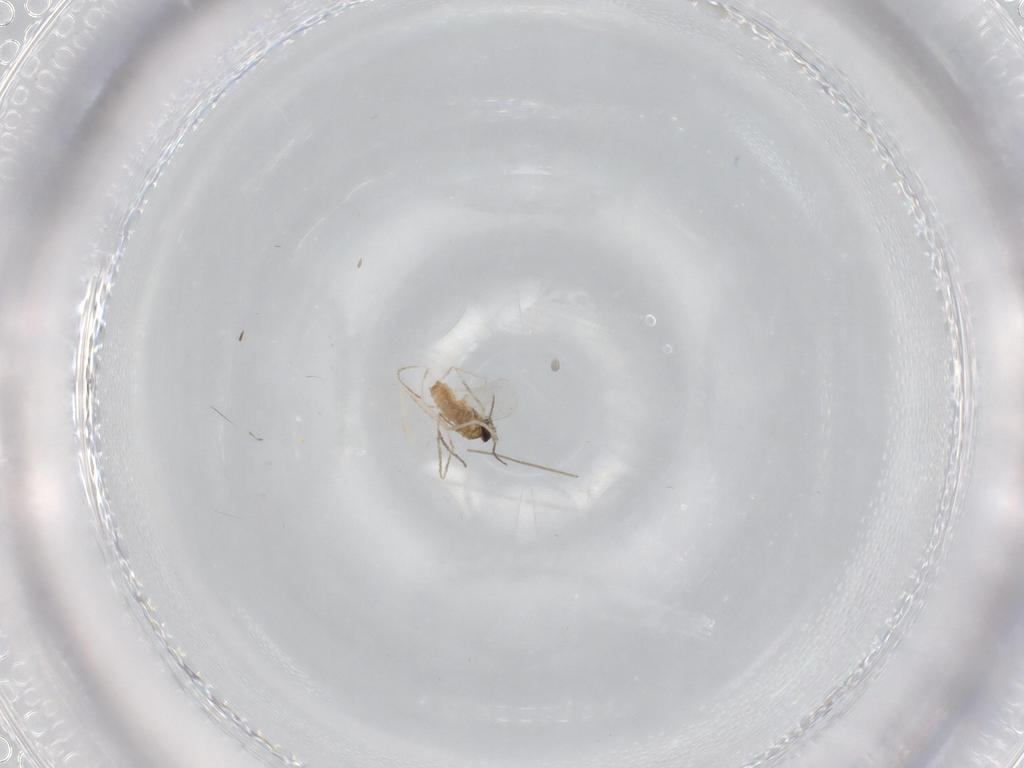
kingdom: Animalia
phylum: Arthropoda
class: Insecta
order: Diptera
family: Cecidomyiidae
